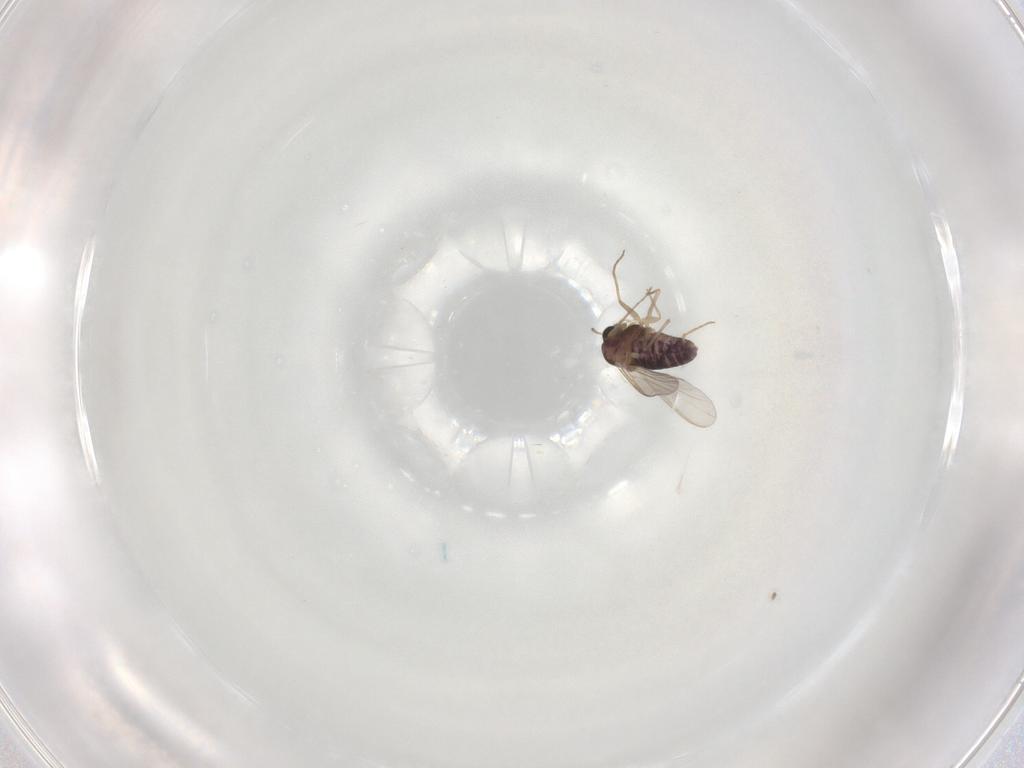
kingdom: Animalia
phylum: Arthropoda
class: Insecta
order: Diptera
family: Chironomidae
